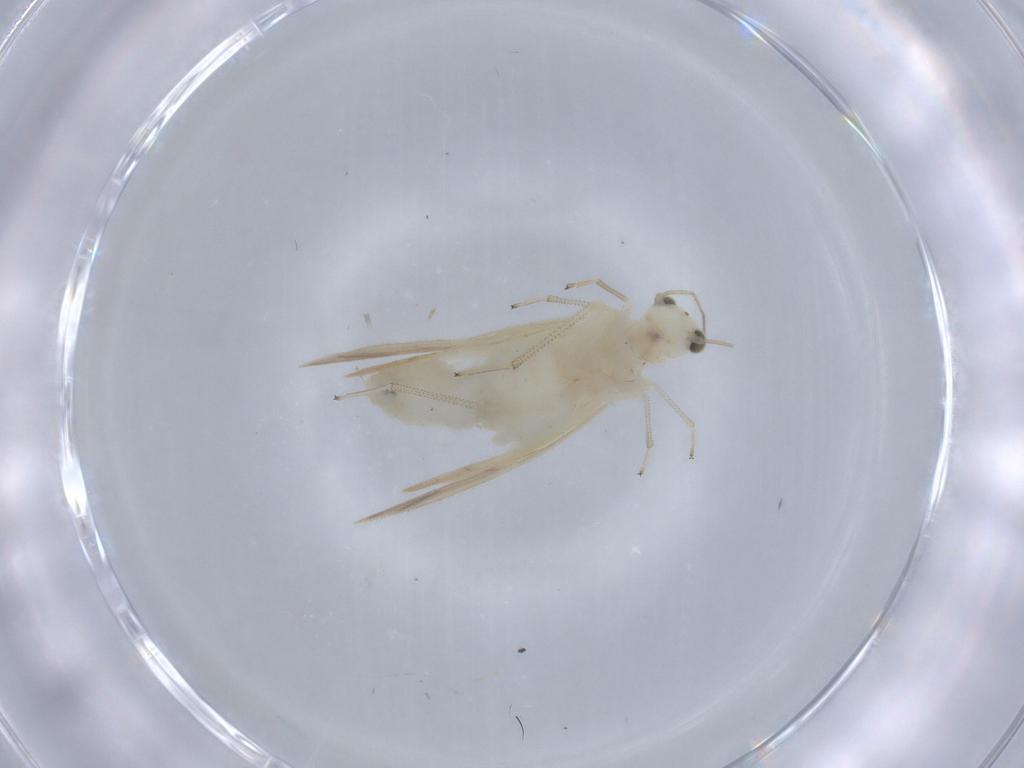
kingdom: Animalia
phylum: Arthropoda
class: Insecta
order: Psocodea
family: Caeciliusidae
